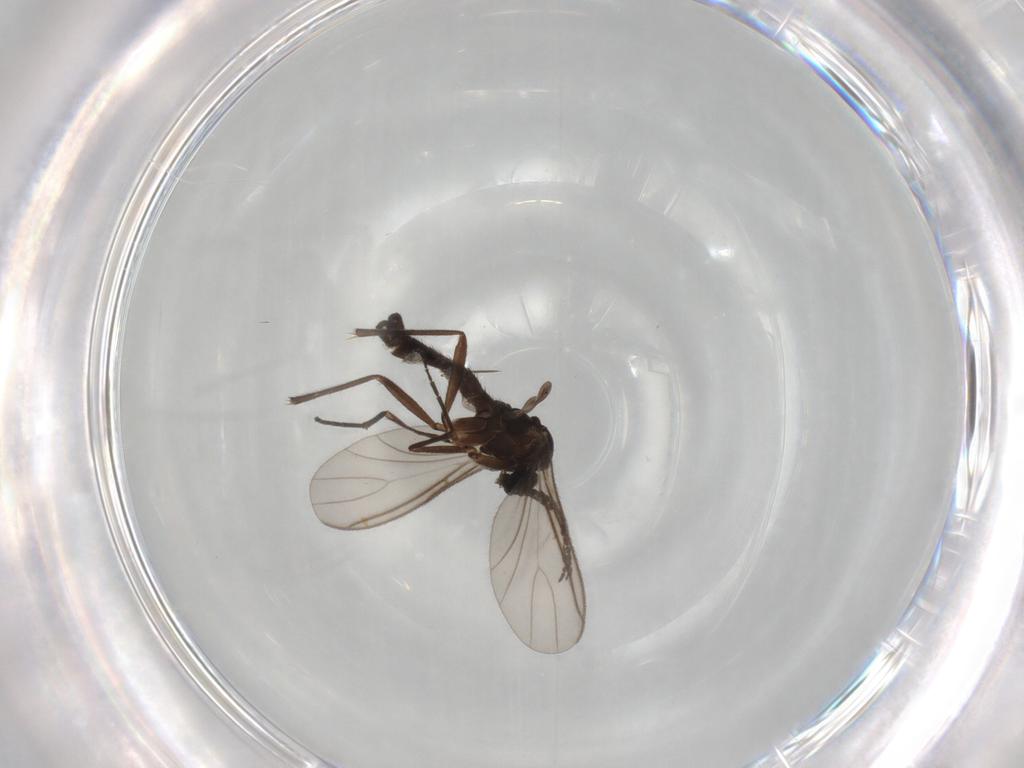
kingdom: Animalia
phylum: Arthropoda
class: Insecta
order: Diptera
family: Sciaridae
